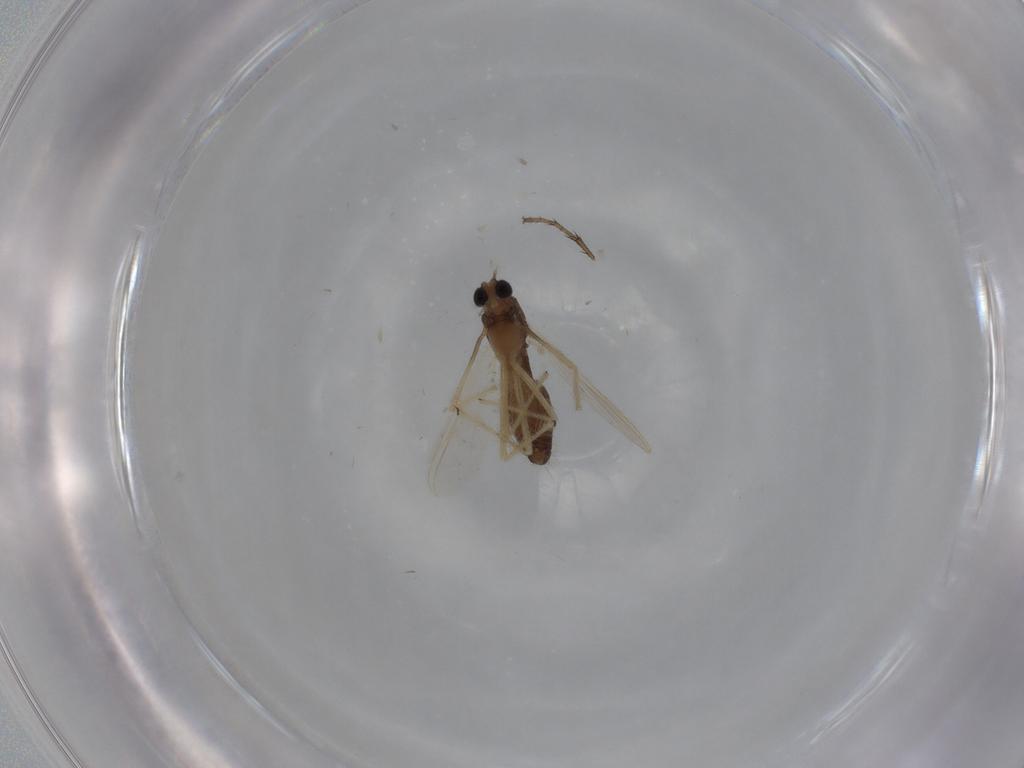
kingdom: Animalia
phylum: Arthropoda
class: Insecta
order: Diptera
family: Chironomidae
